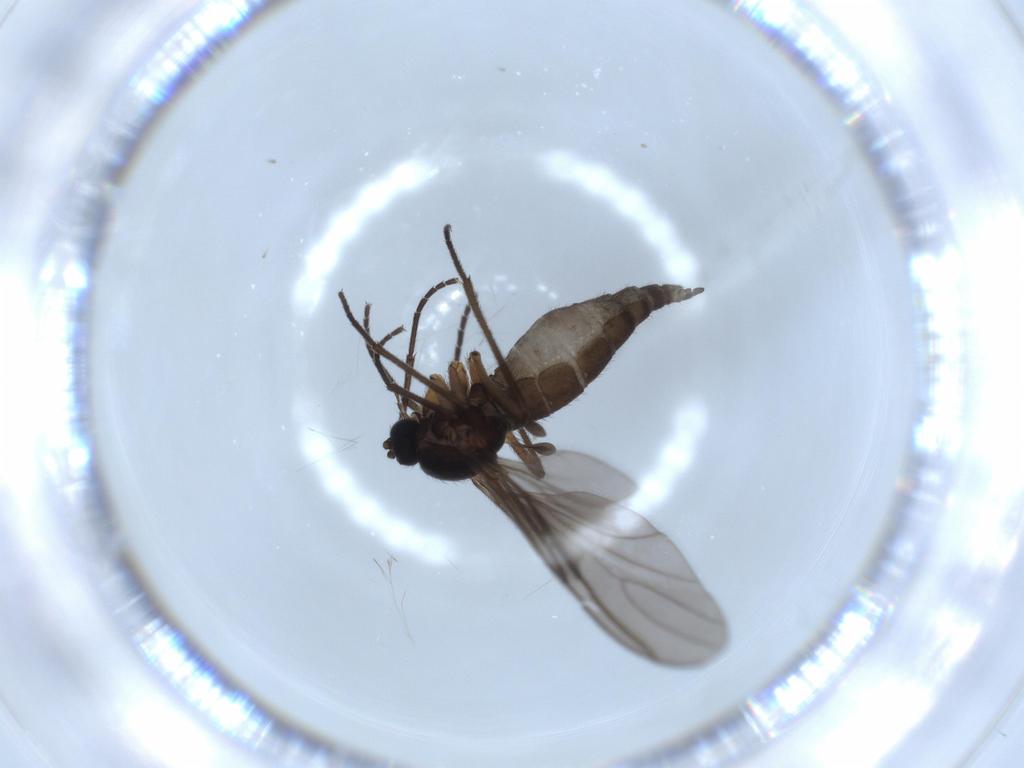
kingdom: Animalia
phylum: Arthropoda
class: Insecta
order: Diptera
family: Sciaridae
